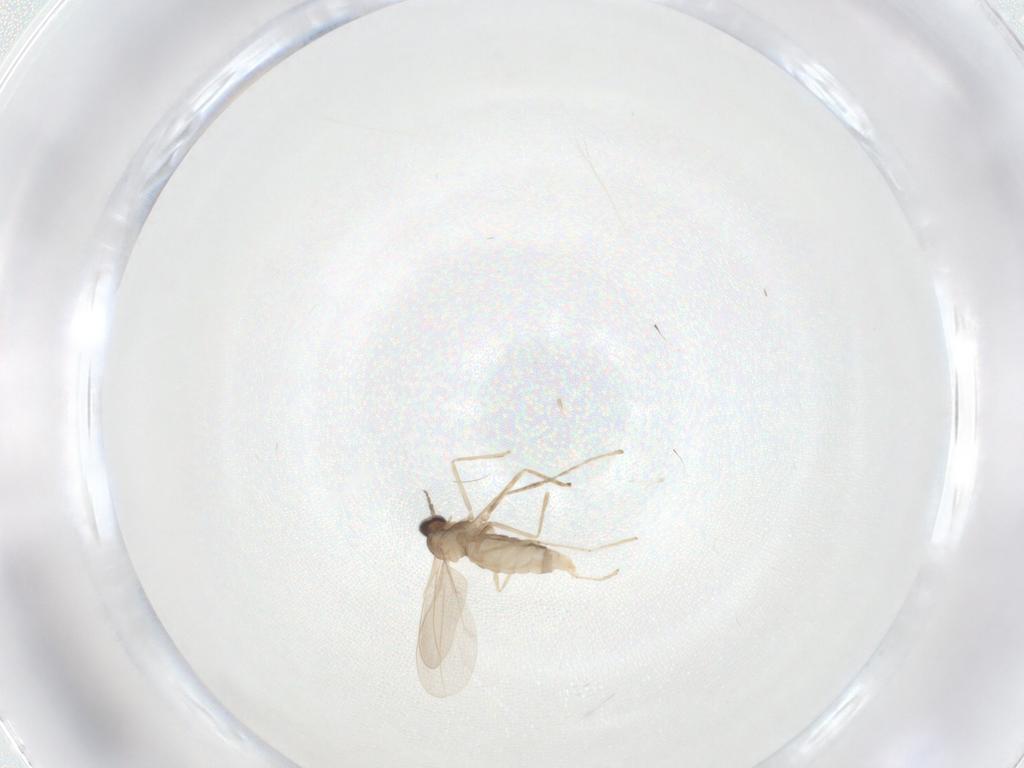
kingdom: Animalia
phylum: Arthropoda
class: Insecta
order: Diptera
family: Cecidomyiidae
